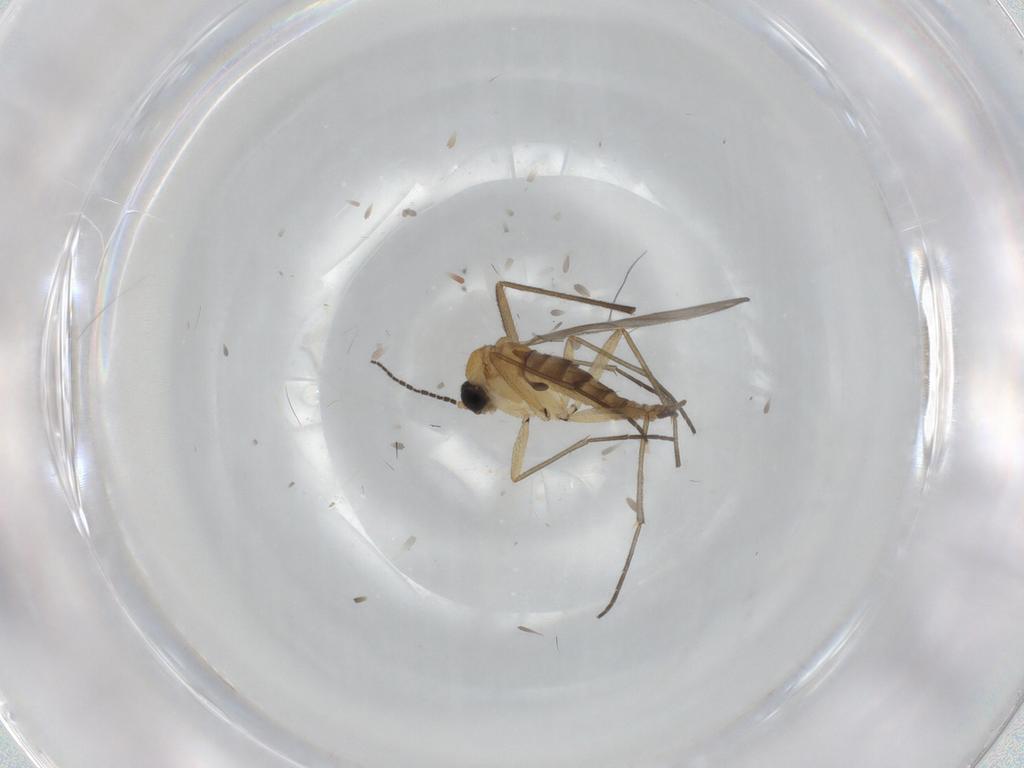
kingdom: Animalia
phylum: Arthropoda
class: Insecta
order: Diptera
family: Sciaridae
